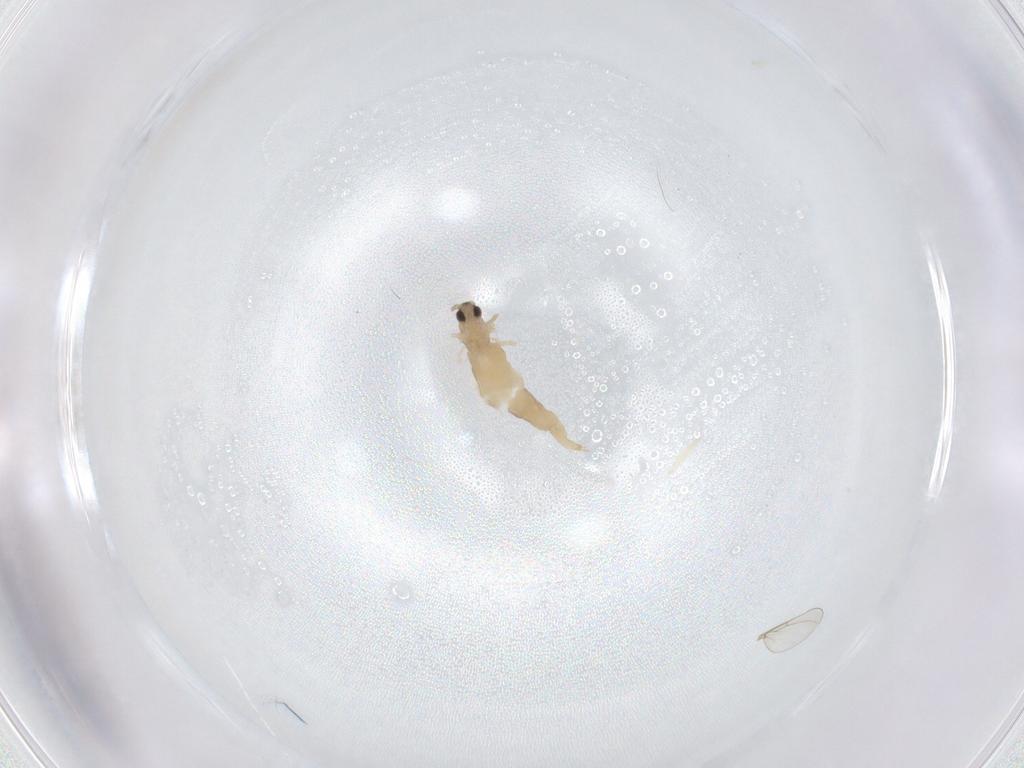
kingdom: Animalia
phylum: Arthropoda
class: Insecta
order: Diptera
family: Cecidomyiidae
